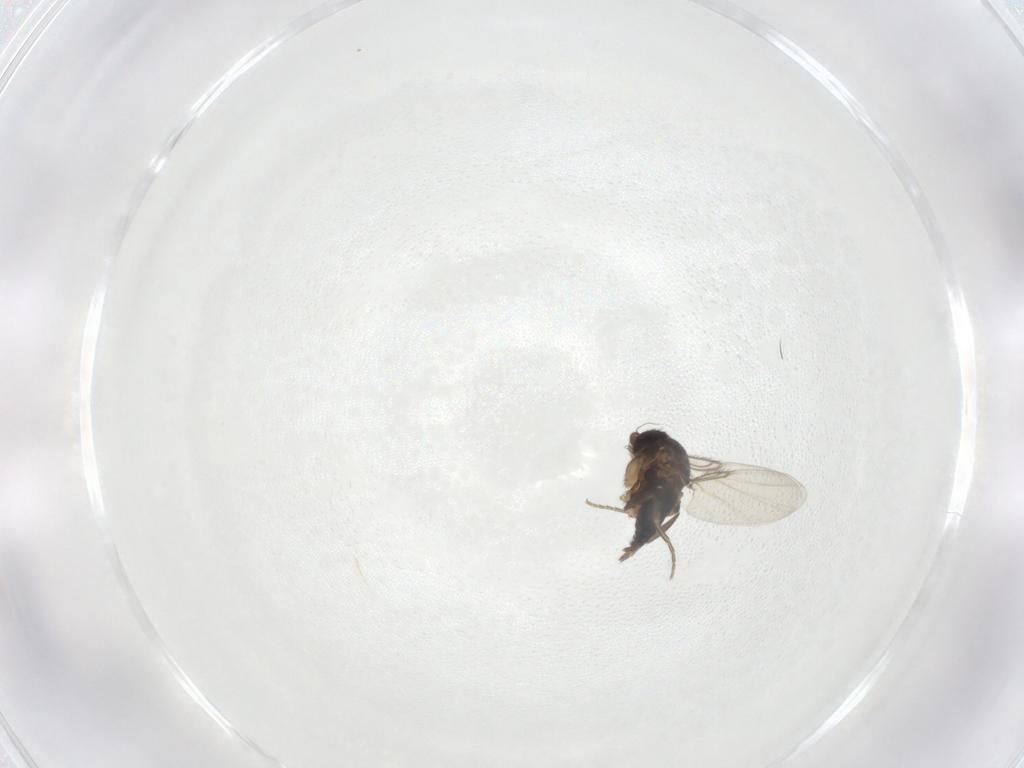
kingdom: Animalia
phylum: Arthropoda
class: Insecta
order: Diptera
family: Phoridae
